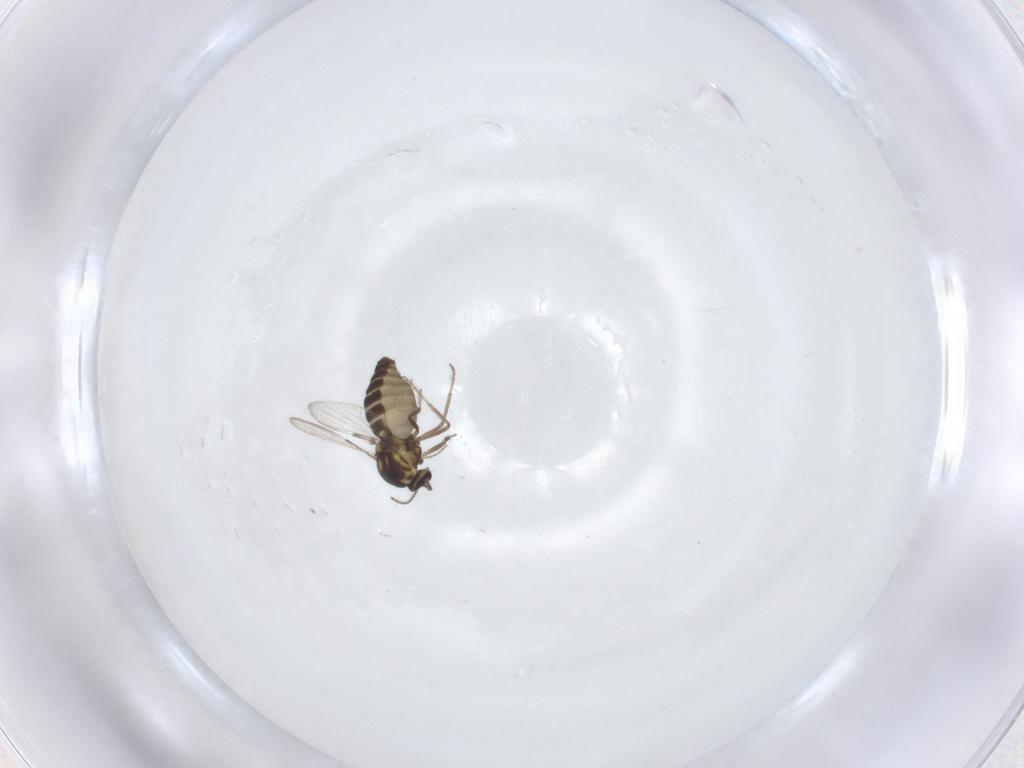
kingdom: Animalia
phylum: Arthropoda
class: Insecta
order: Diptera
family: Ceratopogonidae
